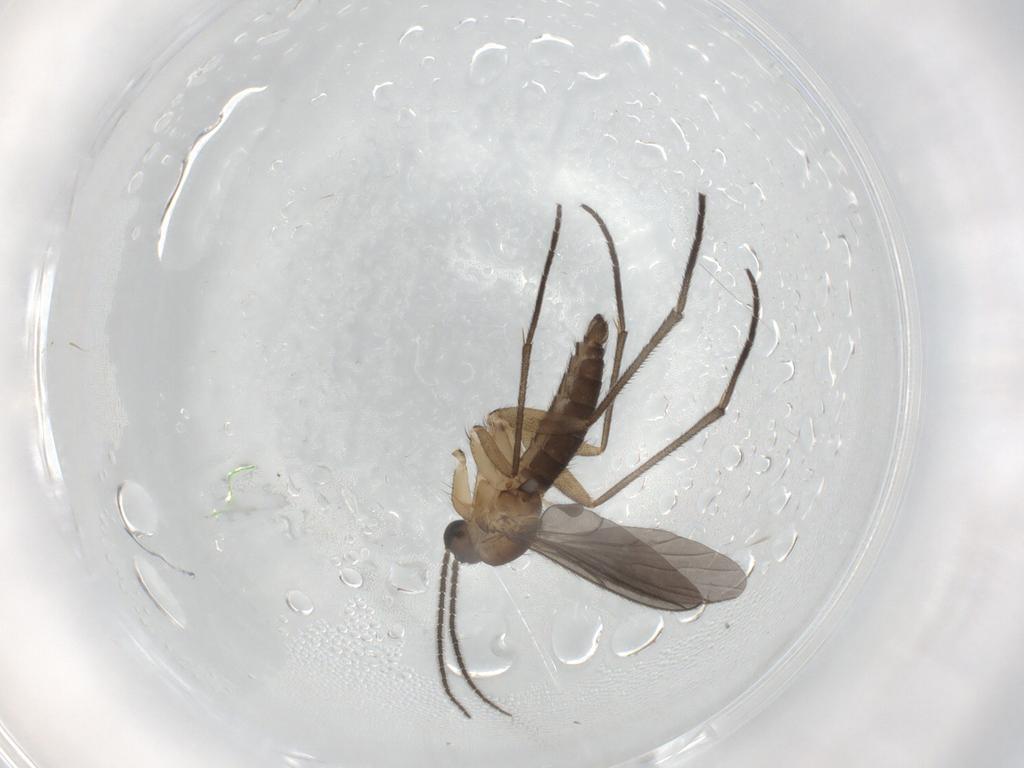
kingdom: Animalia
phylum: Arthropoda
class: Insecta
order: Diptera
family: Sciaridae
